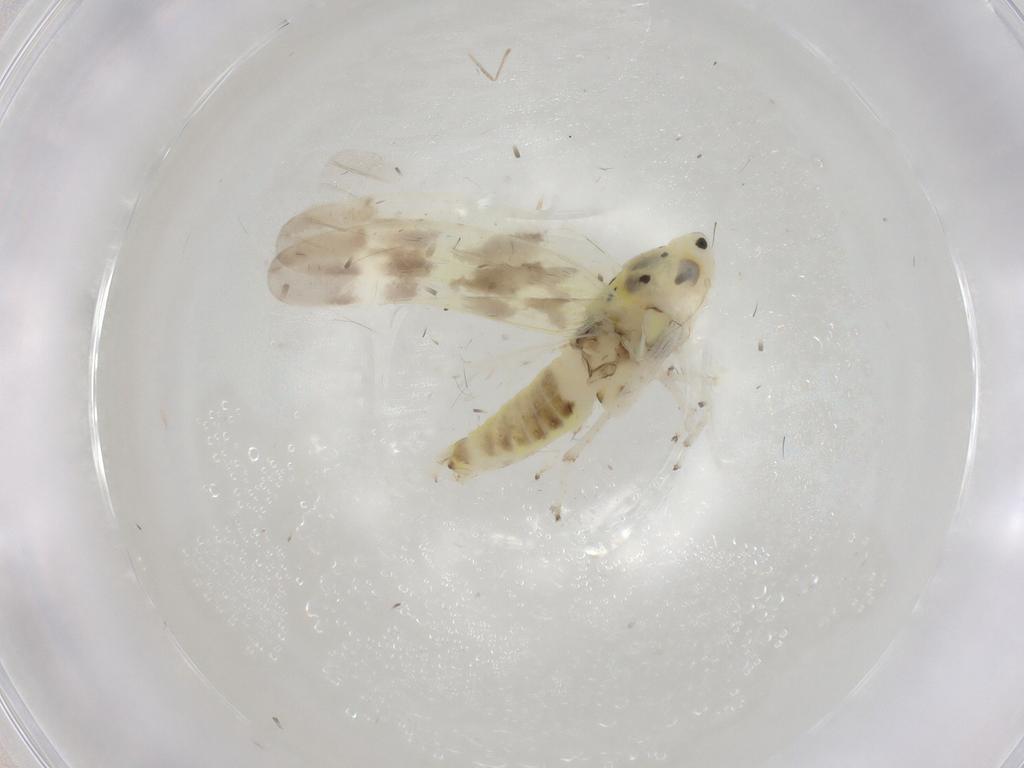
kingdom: Animalia
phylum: Arthropoda
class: Insecta
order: Hemiptera
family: Cicadellidae
